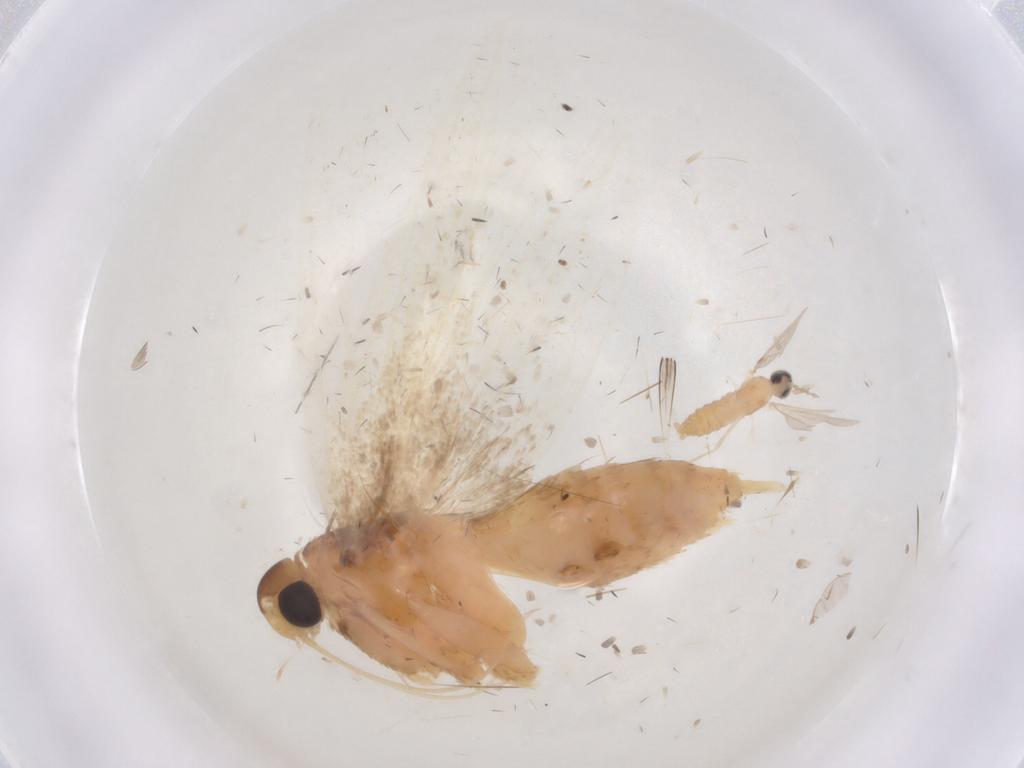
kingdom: Animalia
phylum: Arthropoda
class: Insecta
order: Lepidoptera
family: Lecithoceridae
